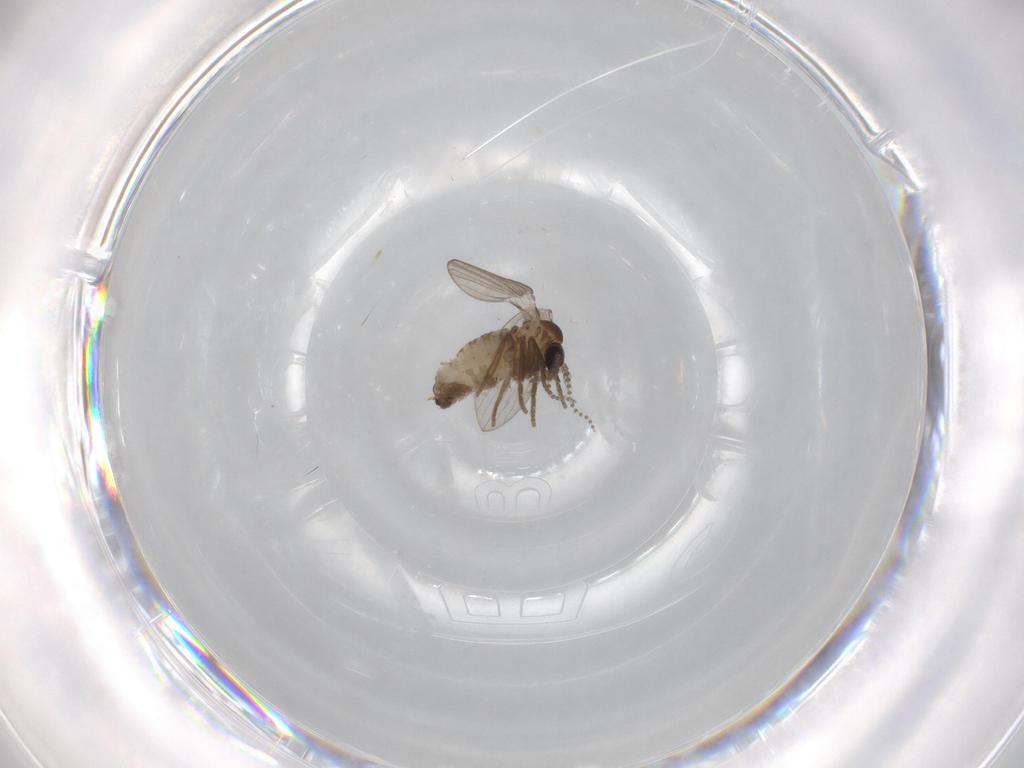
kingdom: Animalia
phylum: Arthropoda
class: Insecta
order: Diptera
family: Psychodidae
